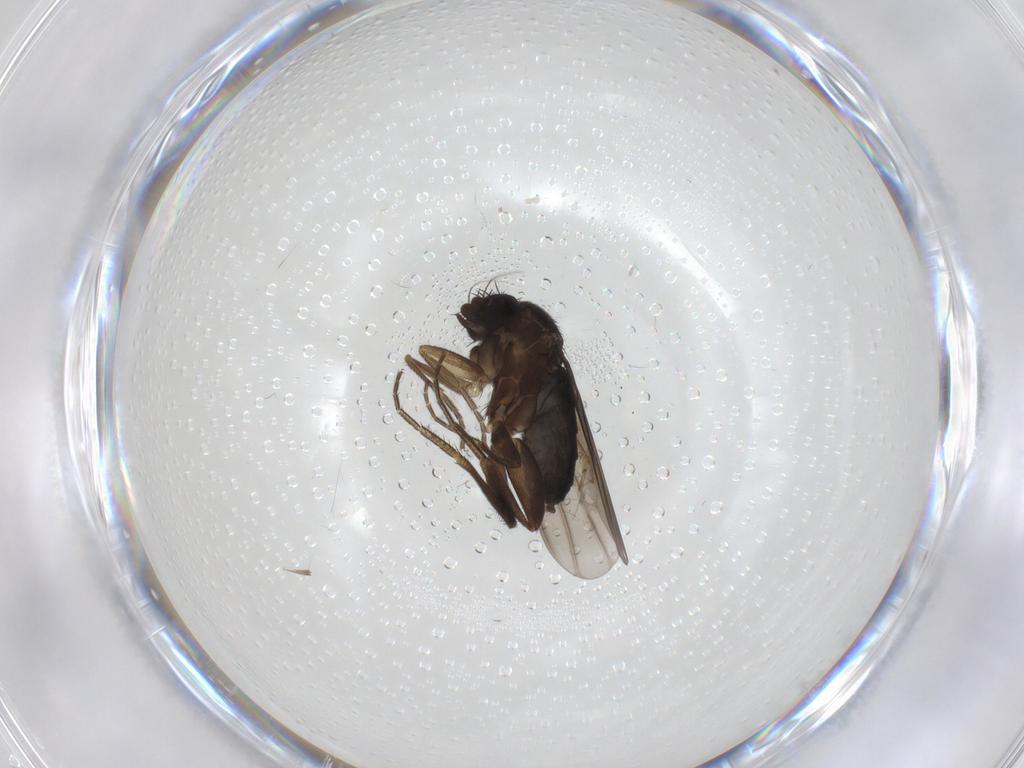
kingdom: Animalia
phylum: Arthropoda
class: Insecta
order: Diptera
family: Phoridae
